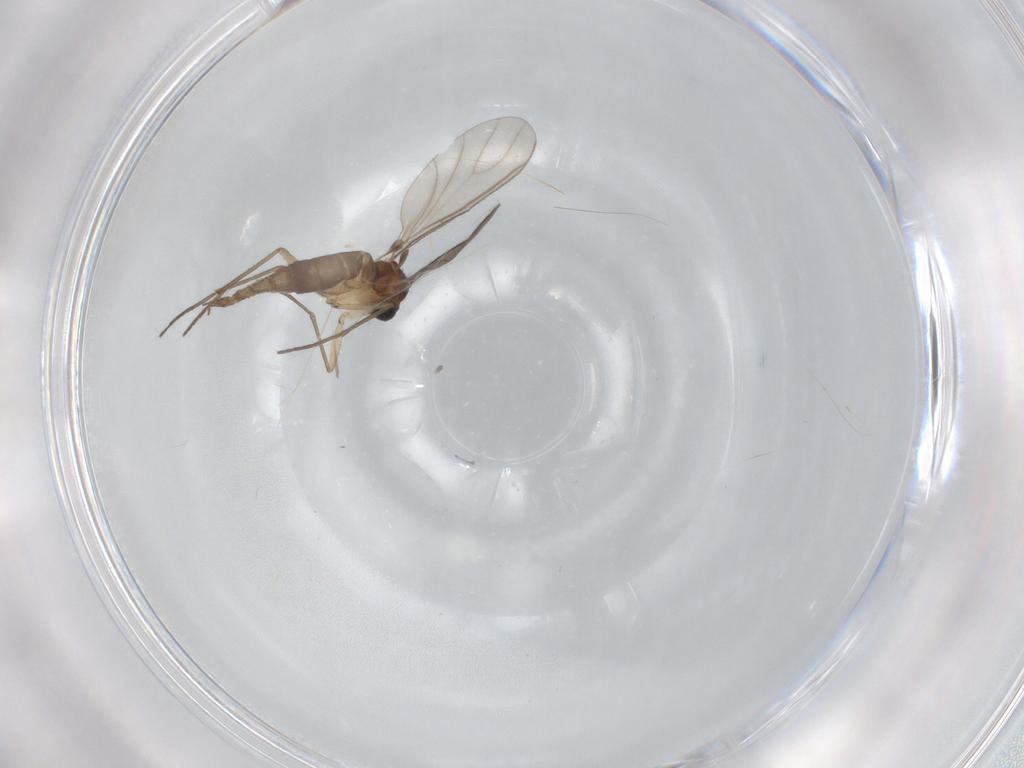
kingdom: Animalia
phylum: Arthropoda
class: Insecta
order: Diptera
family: Sciaridae
